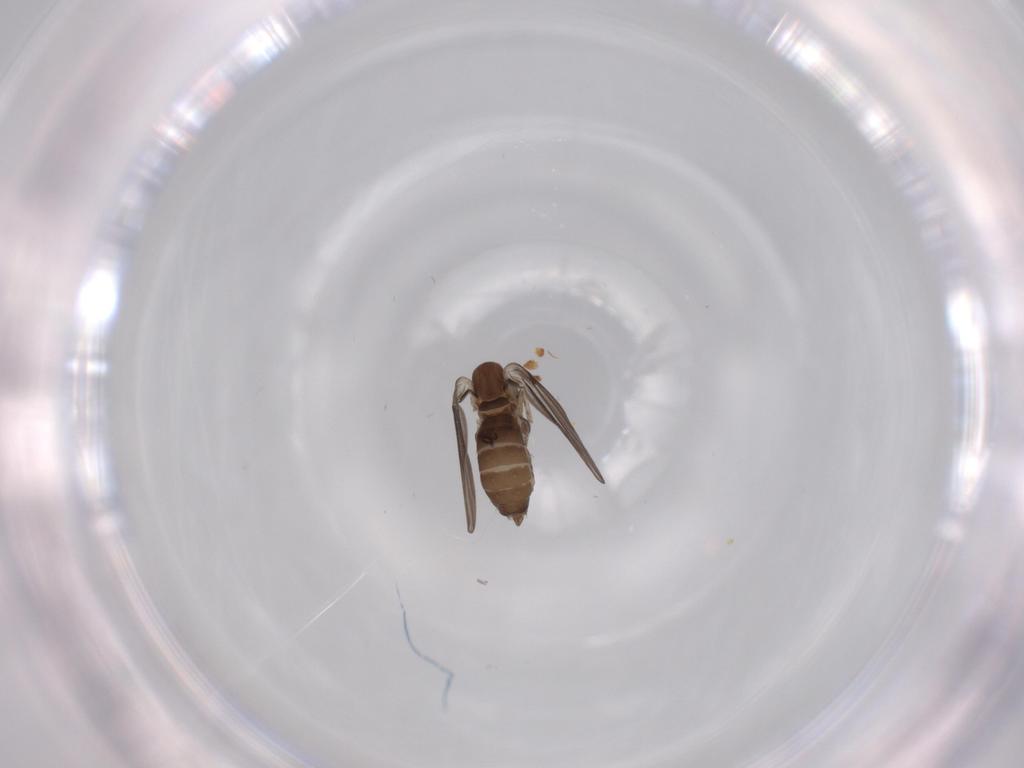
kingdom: Animalia
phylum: Arthropoda
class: Insecta
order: Diptera
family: Psychodidae
